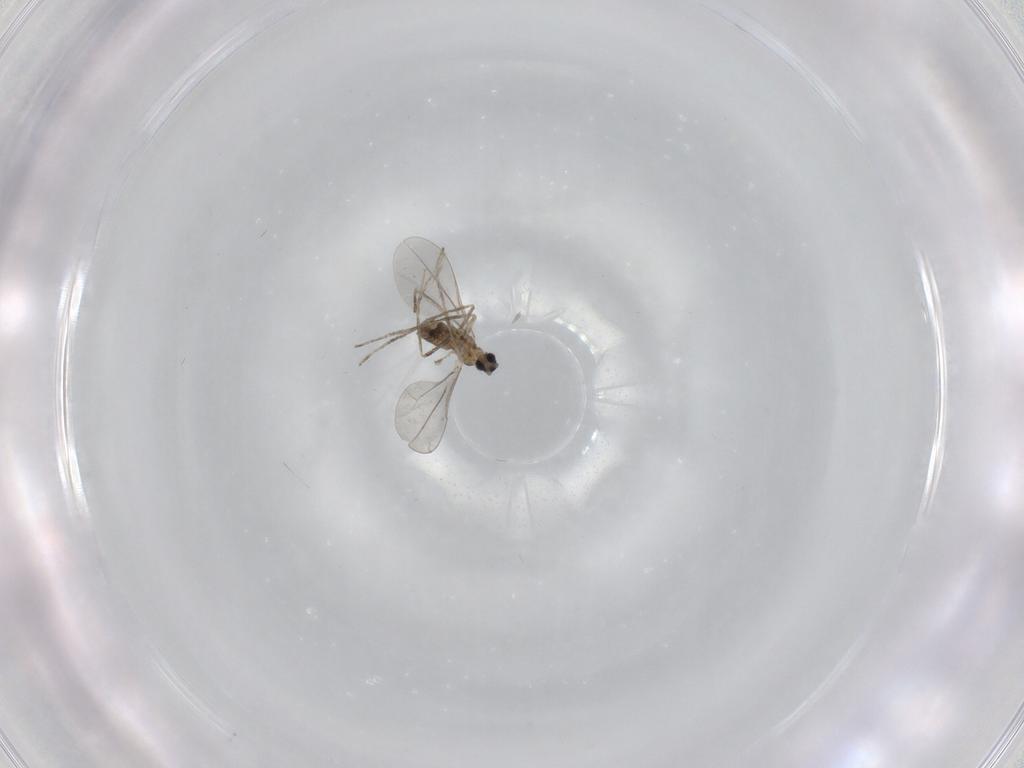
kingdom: Animalia
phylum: Arthropoda
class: Insecta
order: Diptera
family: Cecidomyiidae
